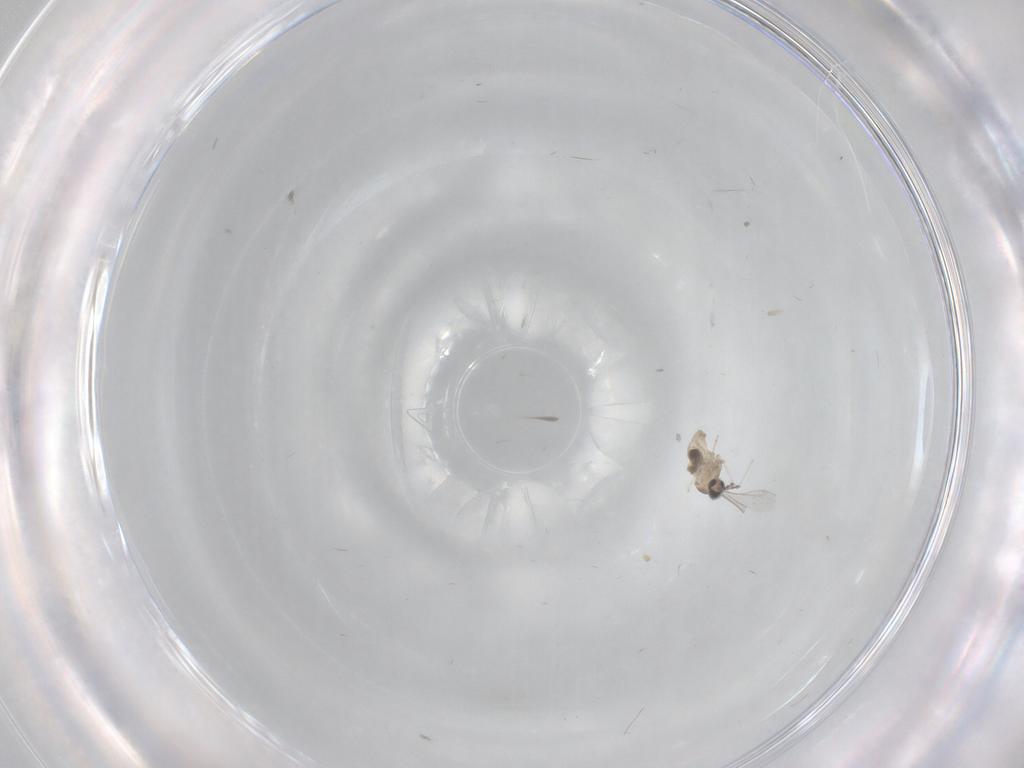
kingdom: Animalia
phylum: Arthropoda
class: Insecta
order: Diptera
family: Cecidomyiidae
